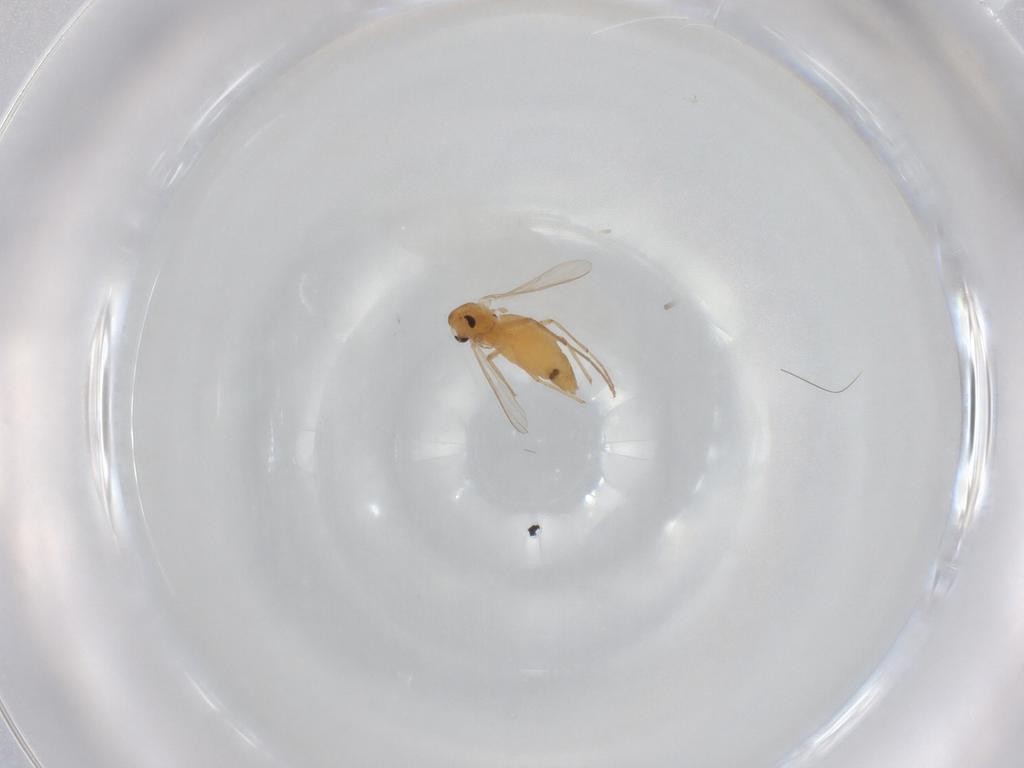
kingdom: Animalia
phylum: Arthropoda
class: Insecta
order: Diptera
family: Chironomidae
